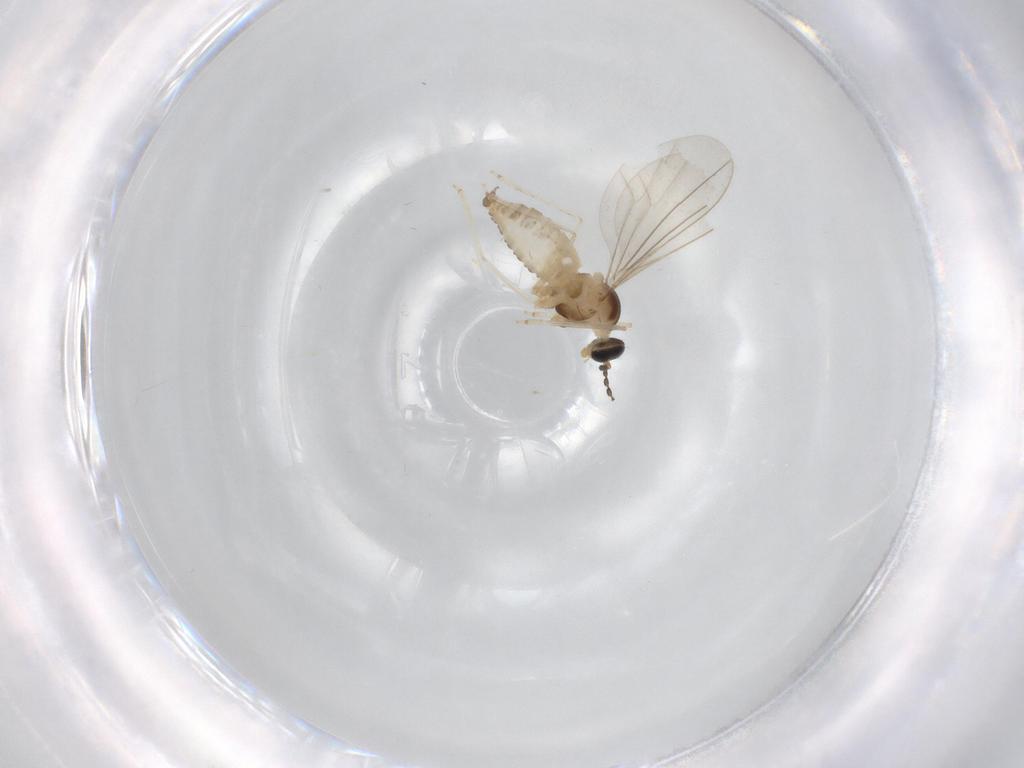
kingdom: Animalia
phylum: Arthropoda
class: Insecta
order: Diptera
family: Cecidomyiidae
